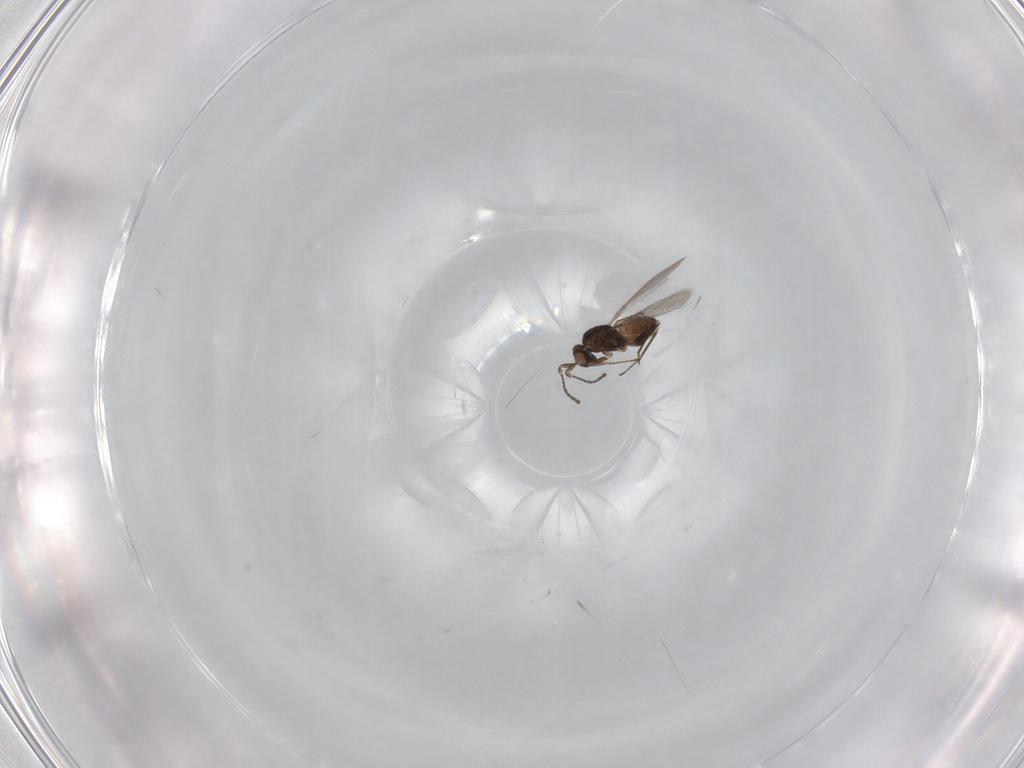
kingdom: Animalia
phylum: Arthropoda
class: Insecta
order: Hymenoptera
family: Mymaridae
